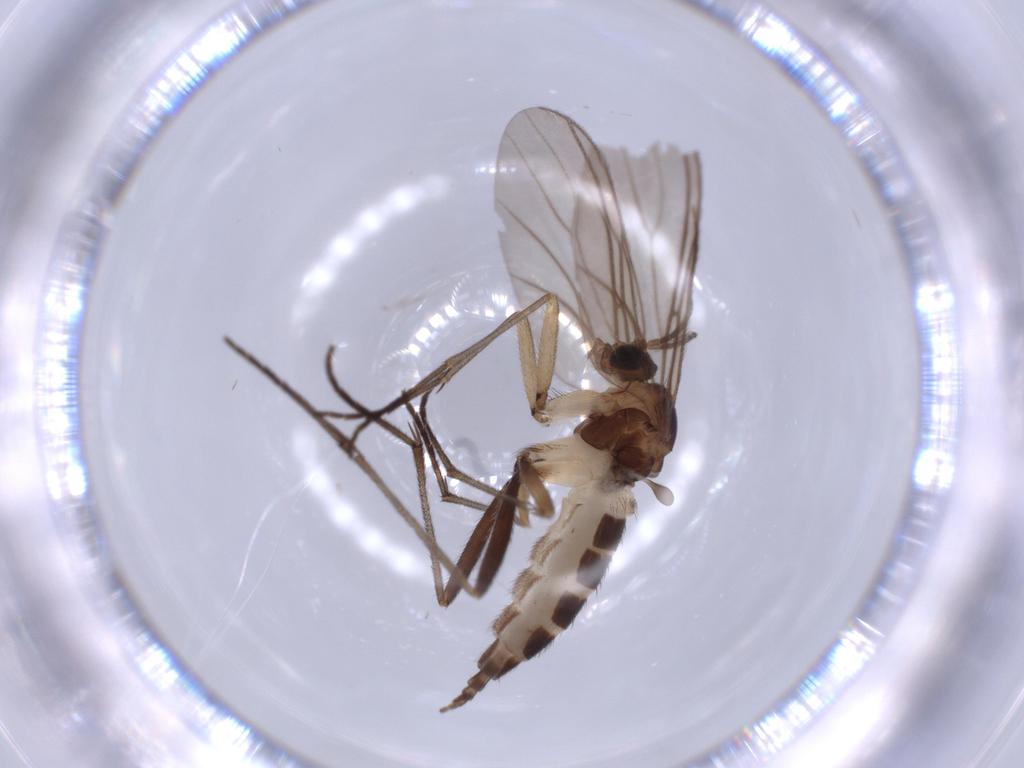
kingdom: Animalia
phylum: Arthropoda
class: Insecta
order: Diptera
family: Sciaridae
